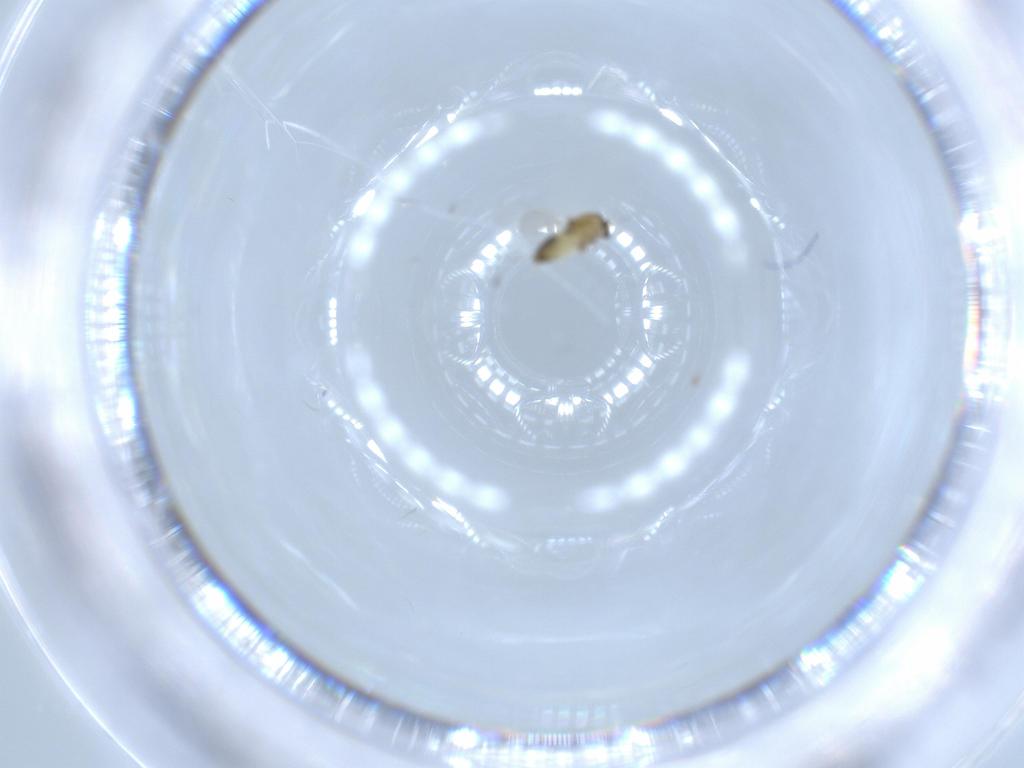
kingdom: Animalia
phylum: Arthropoda
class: Insecta
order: Diptera
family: Chironomidae
